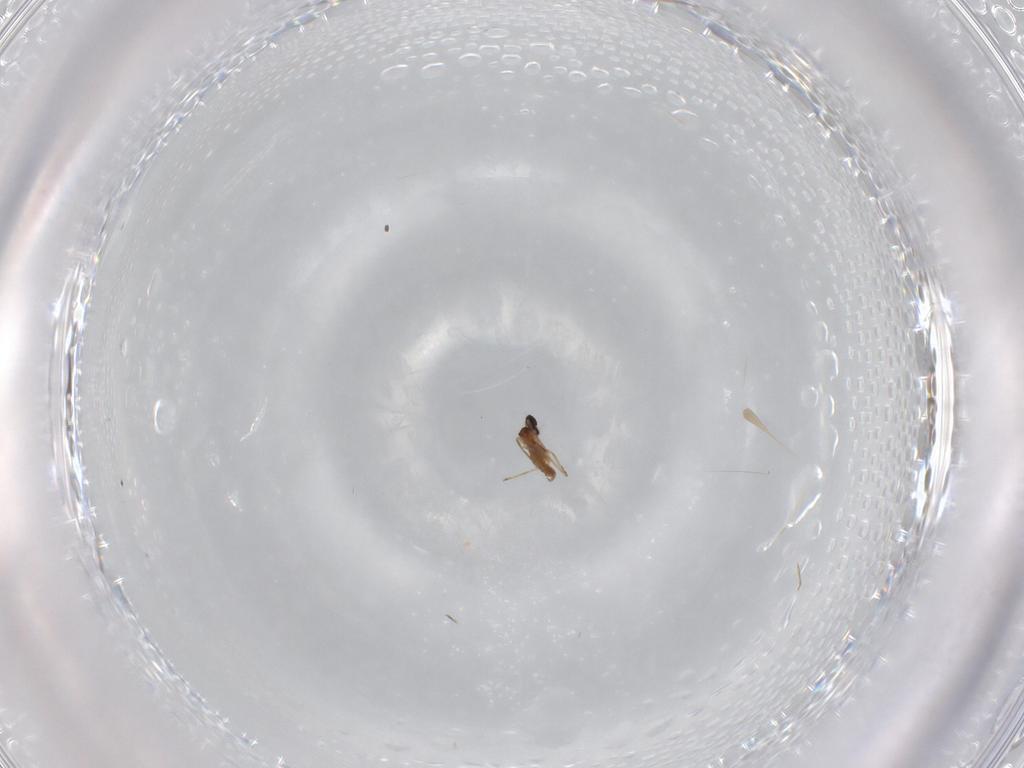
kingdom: Animalia
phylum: Arthropoda
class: Insecta
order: Diptera
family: Cecidomyiidae
